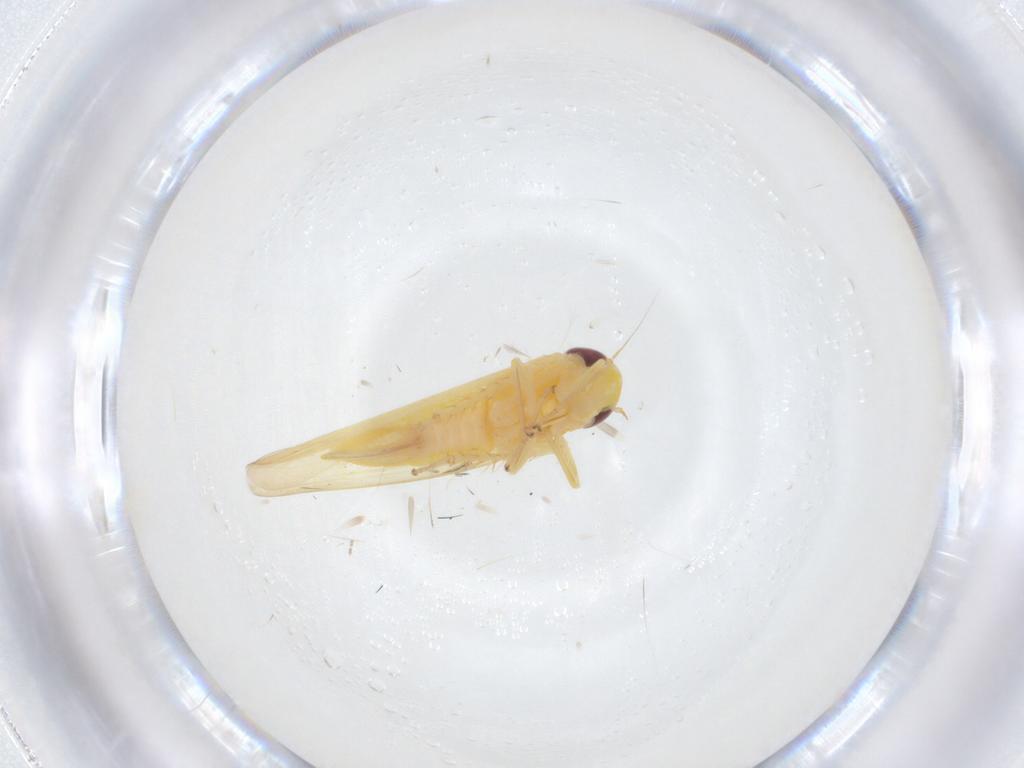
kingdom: Animalia
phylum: Arthropoda
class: Insecta
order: Hemiptera
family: Cicadellidae
